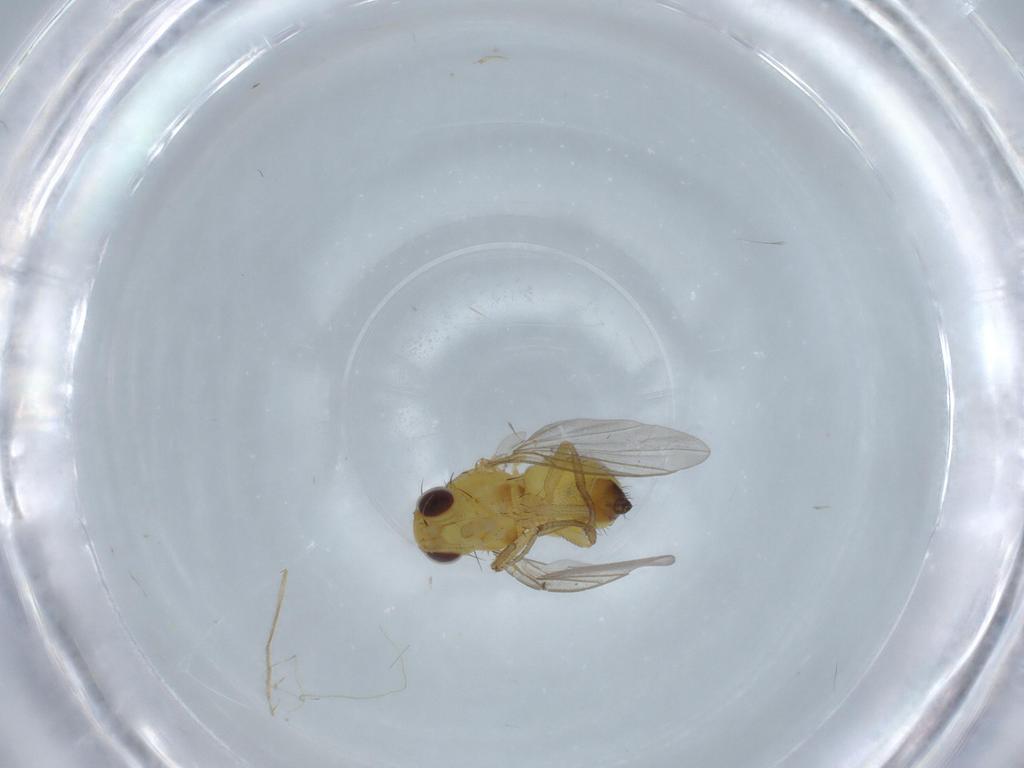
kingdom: Animalia
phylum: Arthropoda
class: Insecta
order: Diptera
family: Asilidae
